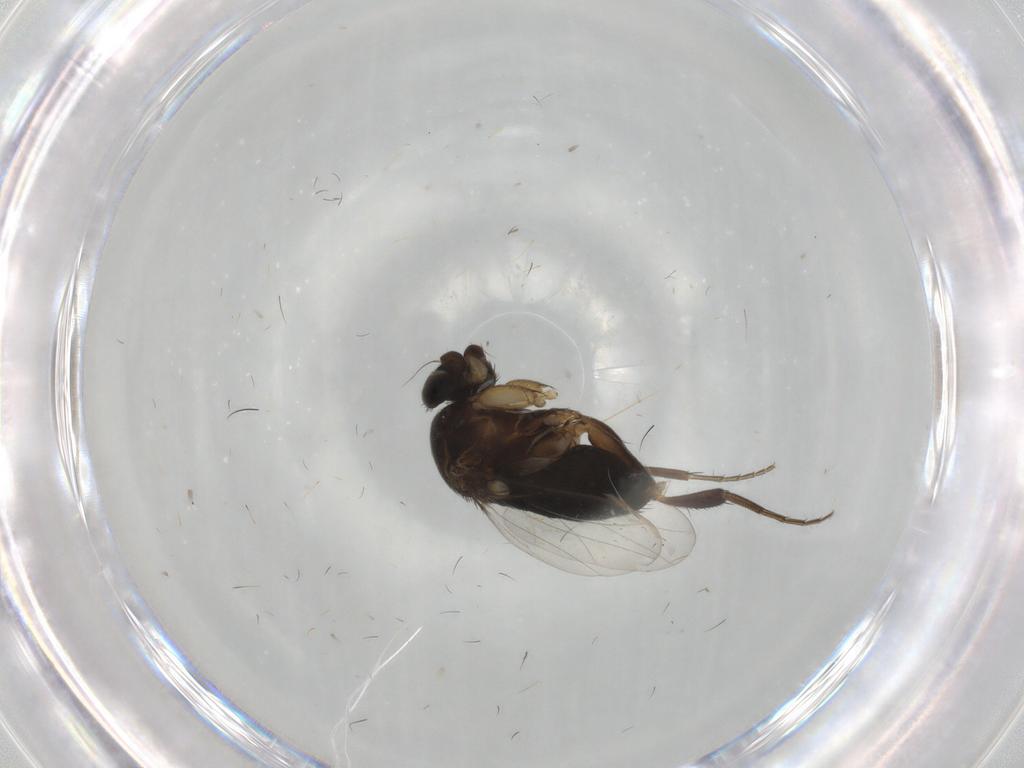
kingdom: Animalia
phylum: Arthropoda
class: Insecta
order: Diptera
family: Phoridae
